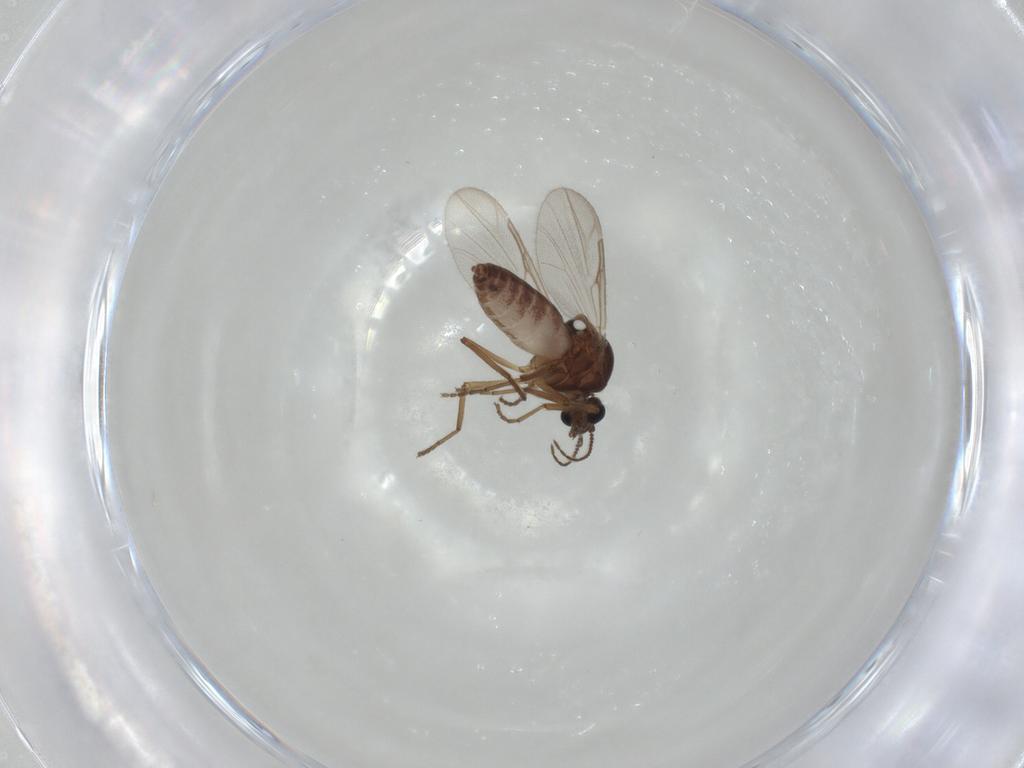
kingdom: Animalia
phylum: Arthropoda
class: Insecta
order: Diptera
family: Ceratopogonidae
